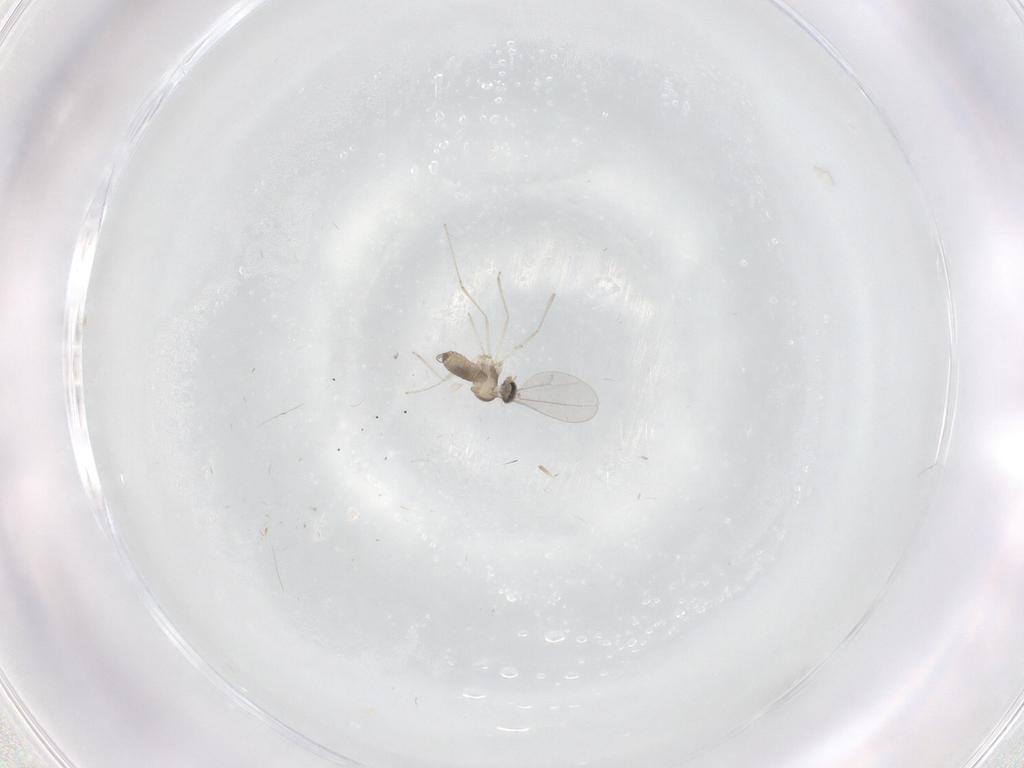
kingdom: Animalia
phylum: Arthropoda
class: Insecta
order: Diptera
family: Cecidomyiidae
